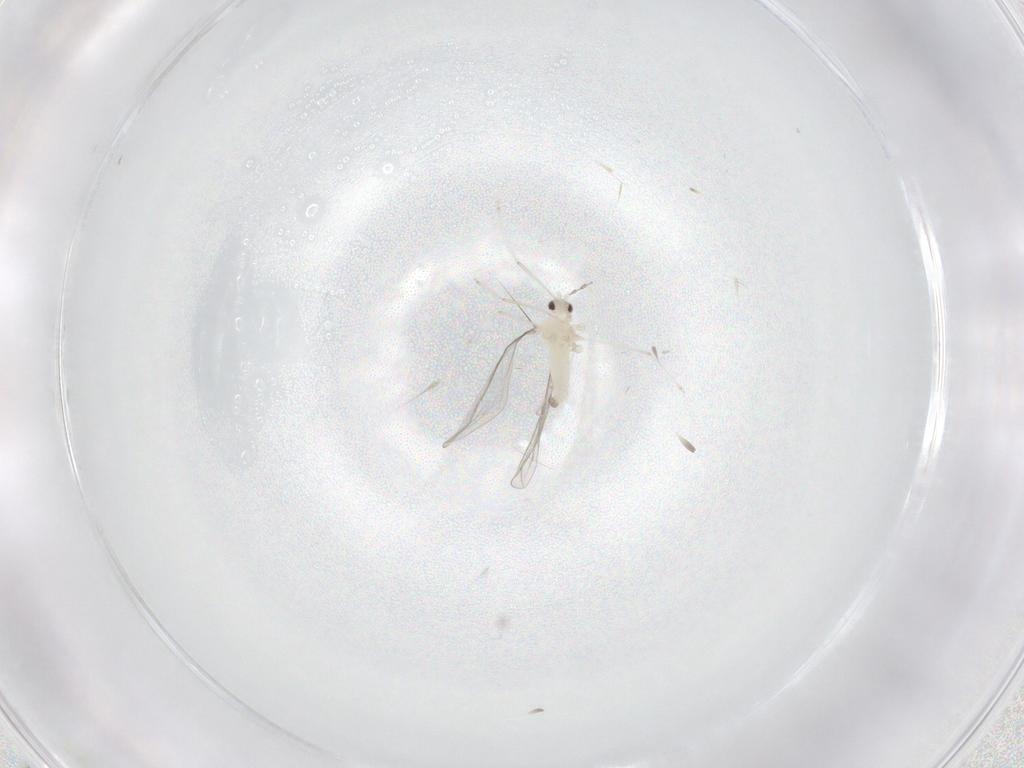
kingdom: Animalia
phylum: Arthropoda
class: Insecta
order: Diptera
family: Cecidomyiidae
